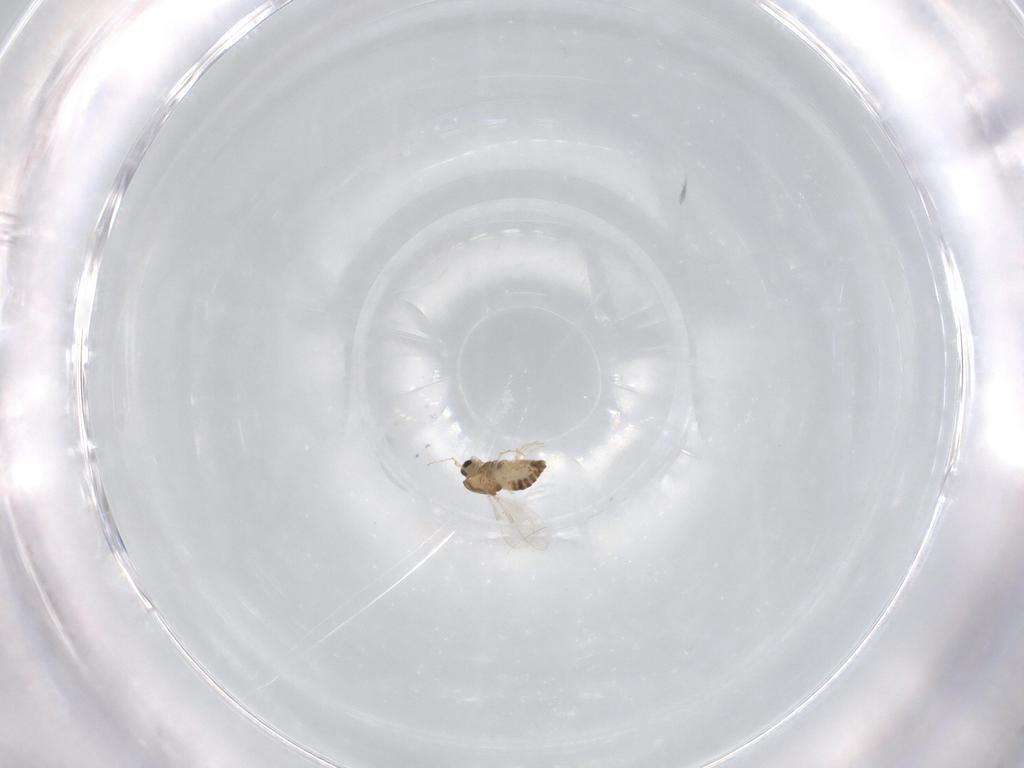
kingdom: Animalia
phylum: Arthropoda
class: Insecta
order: Diptera
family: Chironomidae
